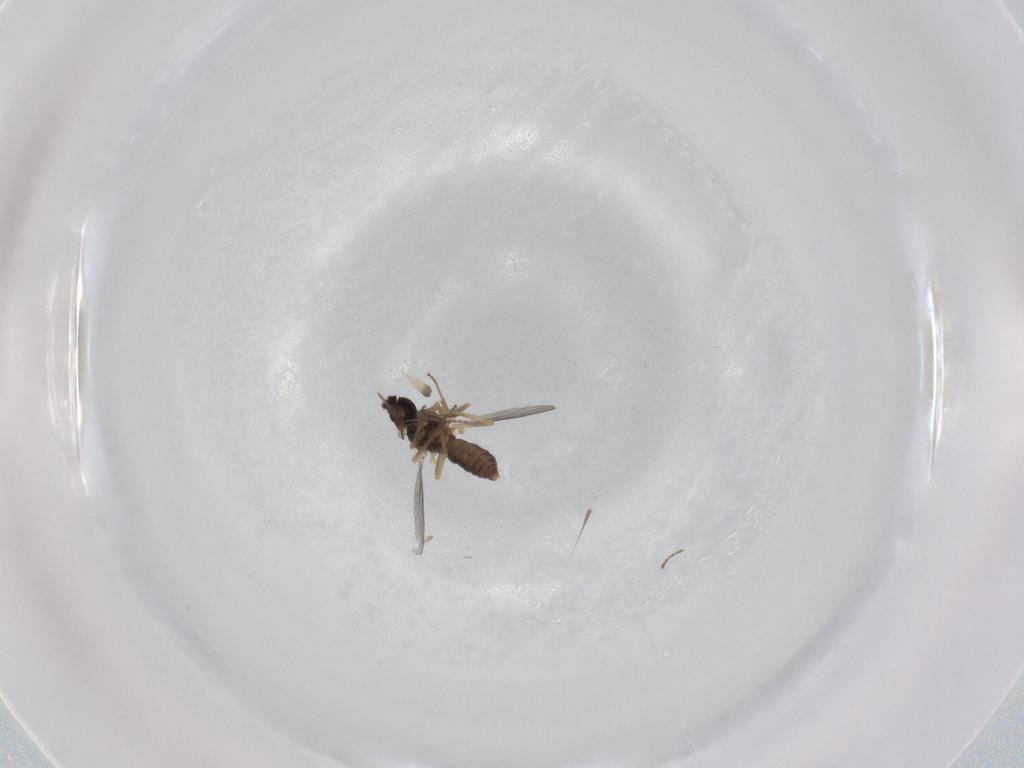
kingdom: Animalia
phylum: Arthropoda
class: Insecta
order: Diptera
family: Ceratopogonidae
